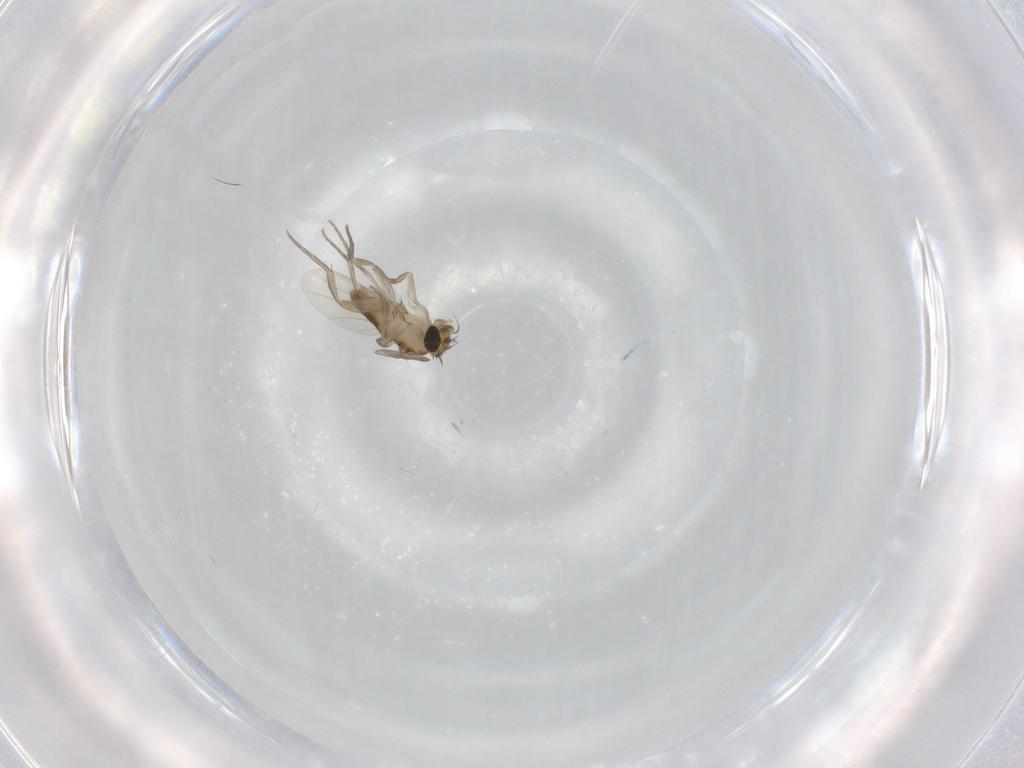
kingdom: Animalia
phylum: Arthropoda
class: Insecta
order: Diptera
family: Phoridae
